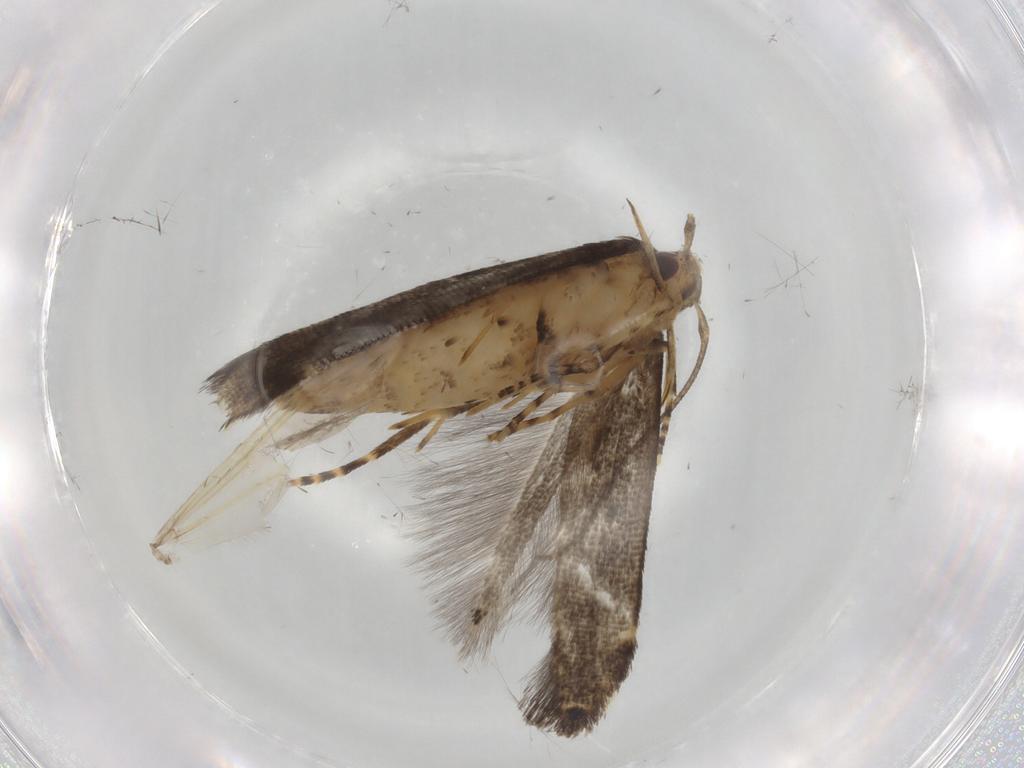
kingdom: Animalia
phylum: Arthropoda
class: Insecta
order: Lepidoptera
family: Cosmopterigidae
